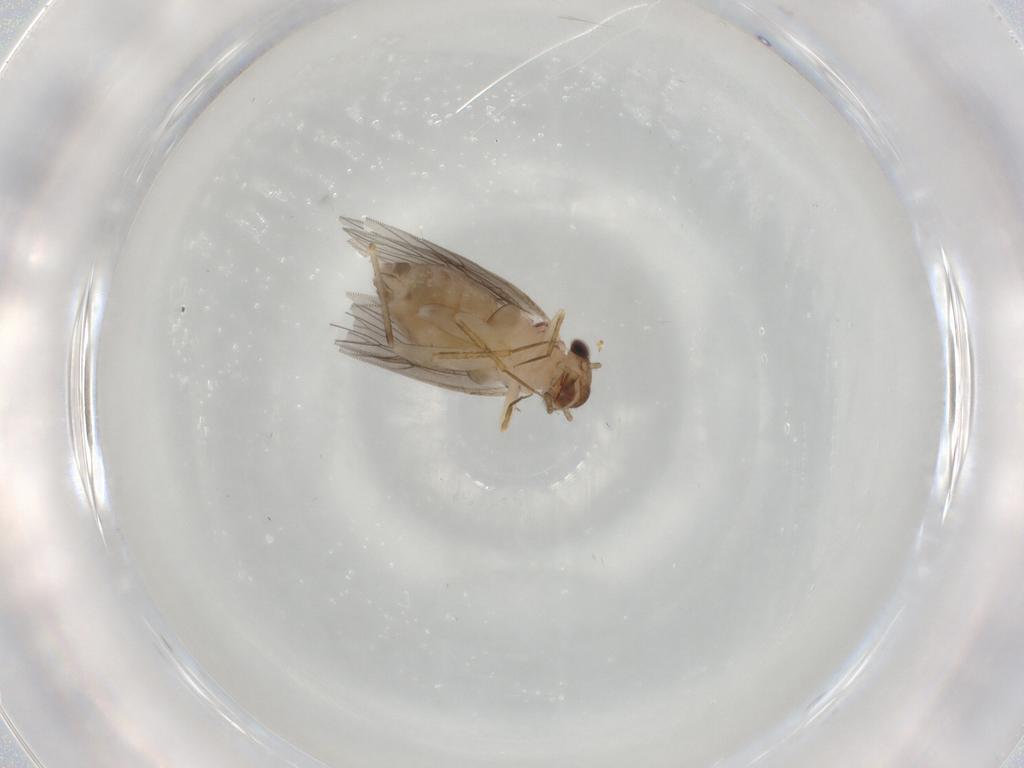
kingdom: Animalia
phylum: Arthropoda
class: Insecta
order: Psocodea
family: Lepidopsocidae
